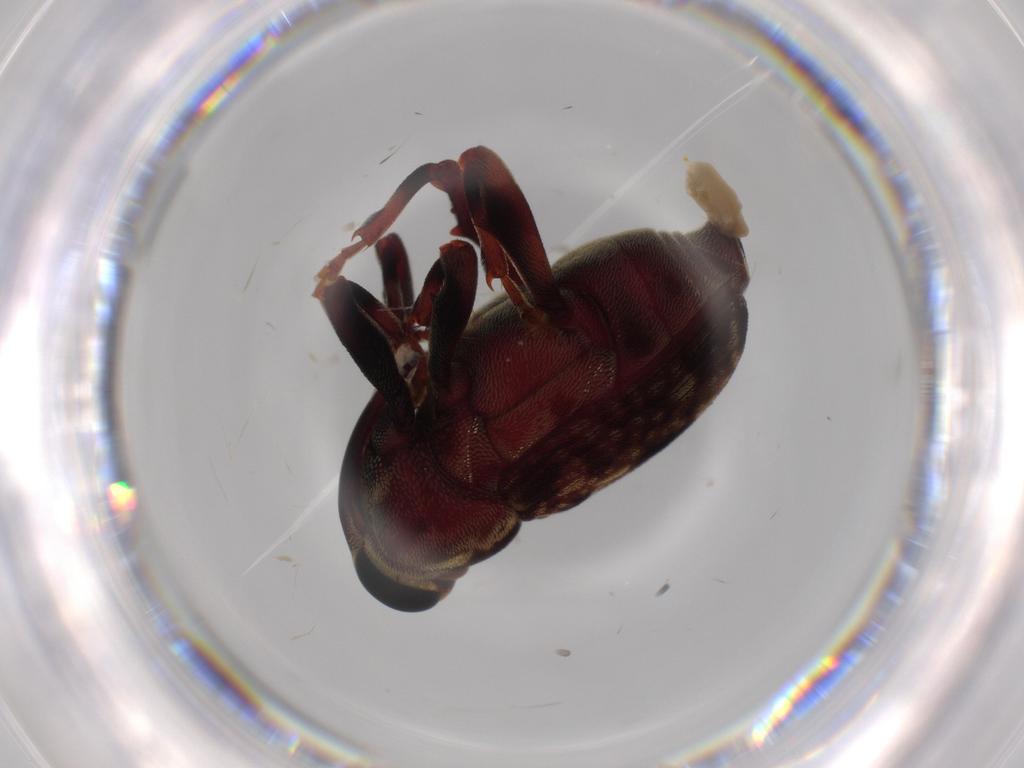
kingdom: Animalia
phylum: Arthropoda
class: Insecta
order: Coleoptera
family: Curculionidae
